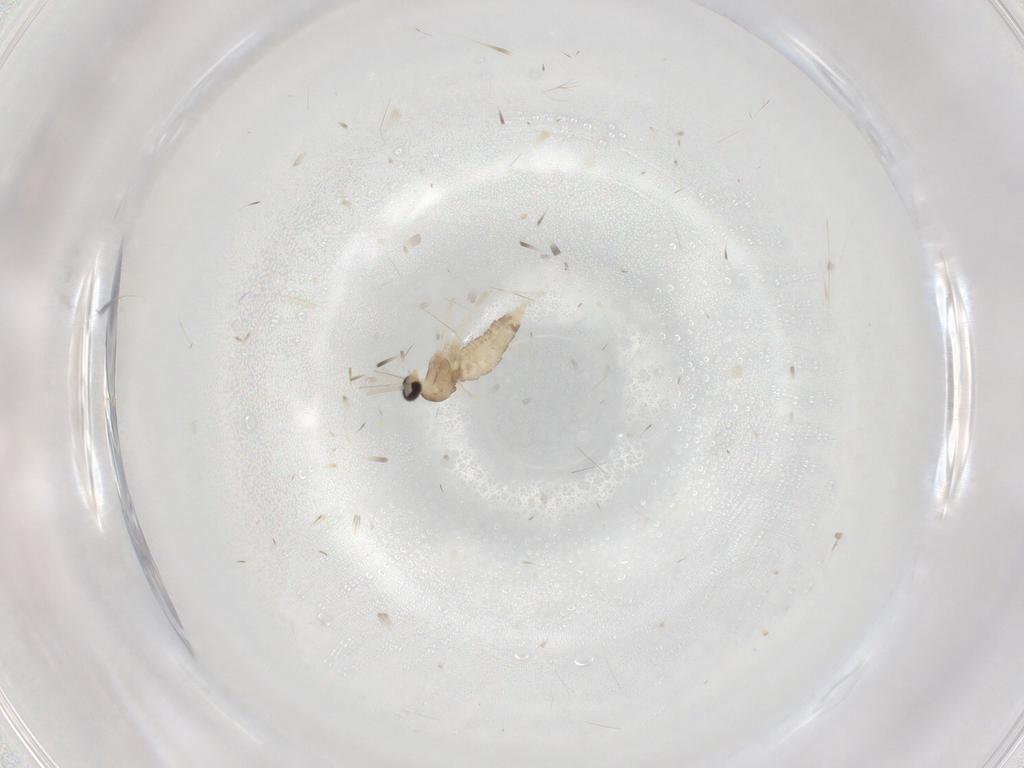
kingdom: Animalia
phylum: Arthropoda
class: Insecta
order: Diptera
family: Cecidomyiidae
